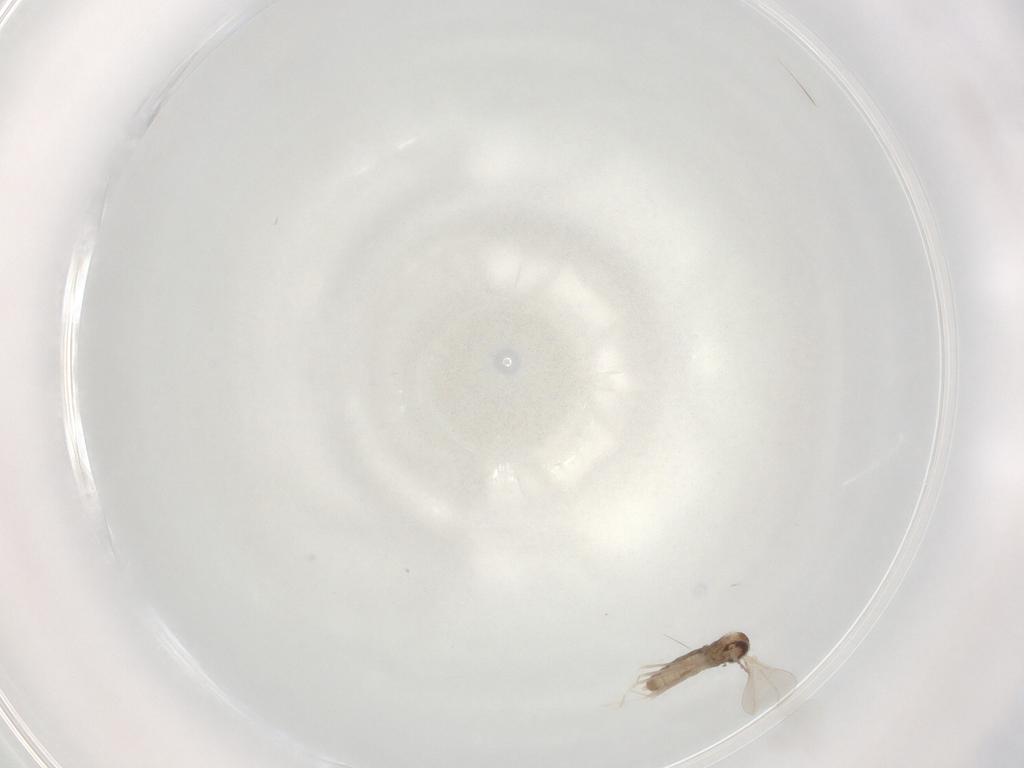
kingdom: Animalia
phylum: Arthropoda
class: Insecta
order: Diptera
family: Cecidomyiidae
